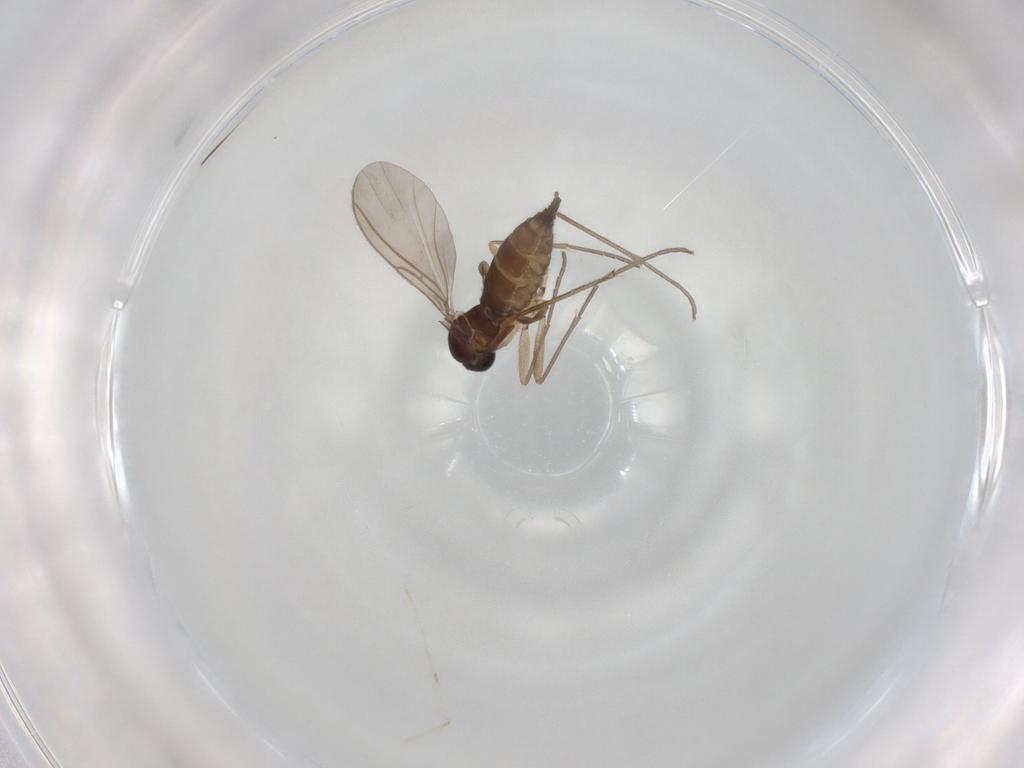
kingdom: Animalia
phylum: Arthropoda
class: Insecta
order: Diptera
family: Sciaridae
